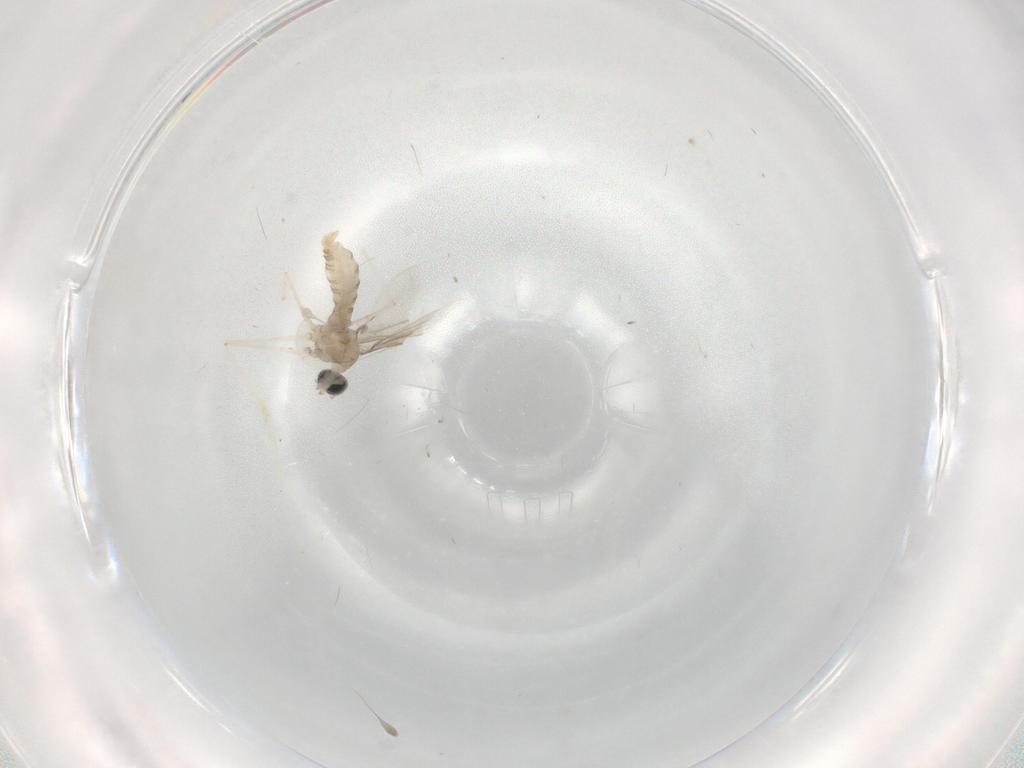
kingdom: Animalia
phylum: Arthropoda
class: Insecta
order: Diptera
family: Cecidomyiidae
